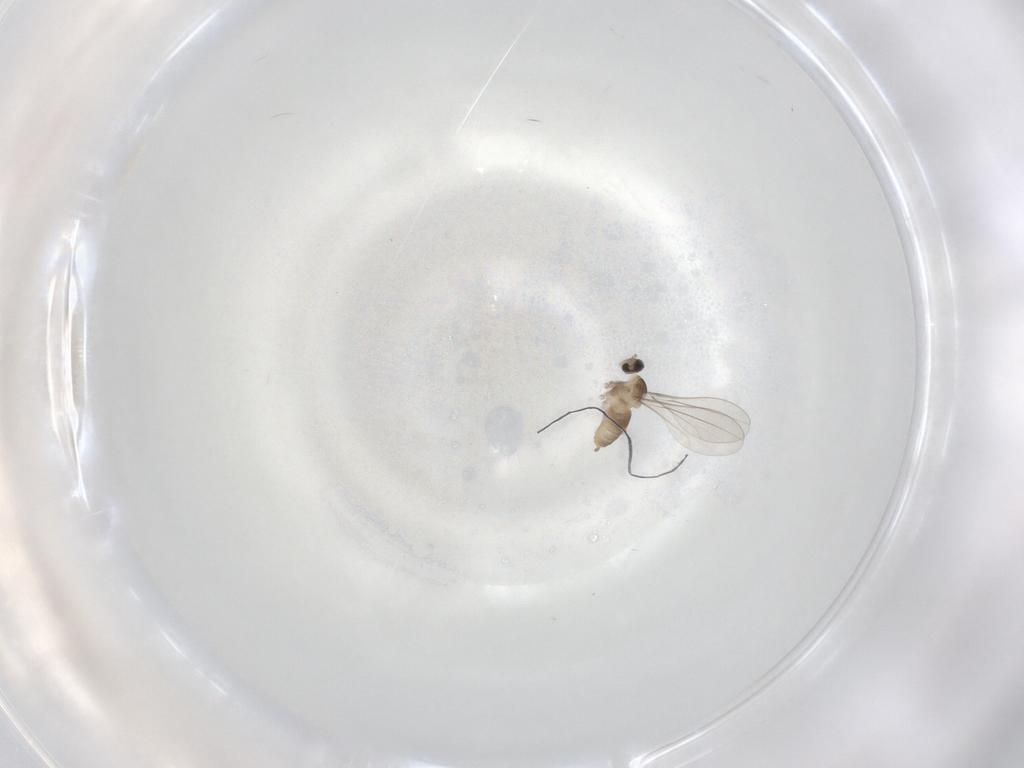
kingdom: Animalia
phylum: Arthropoda
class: Insecta
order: Diptera
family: Cecidomyiidae
